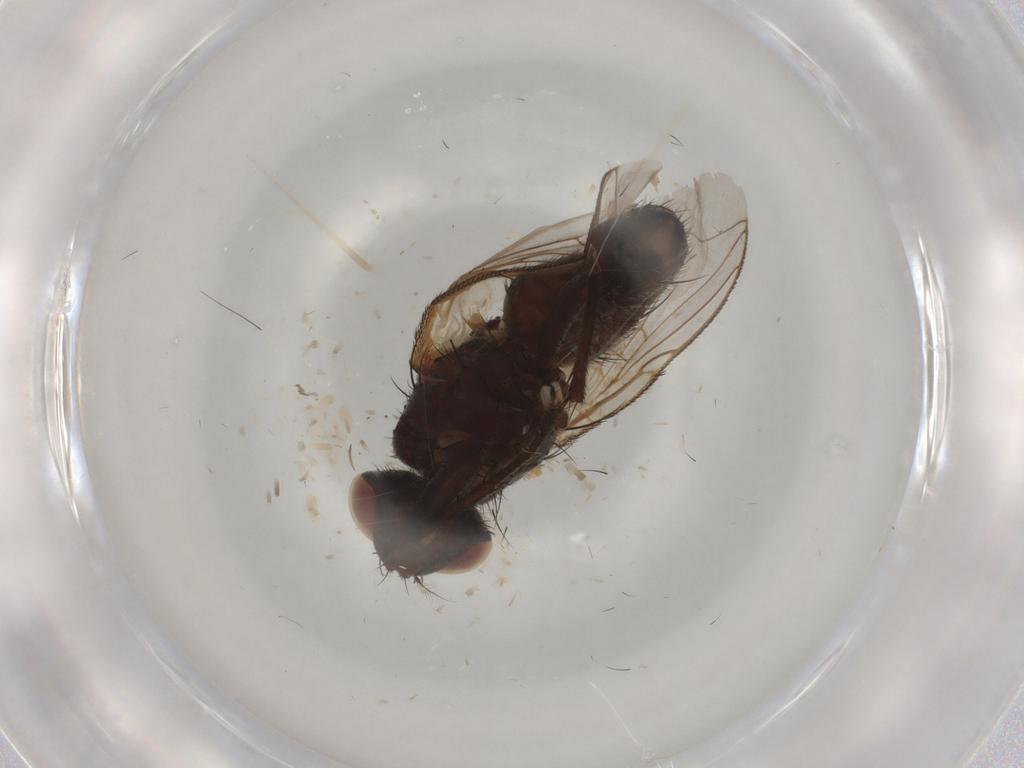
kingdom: Animalia
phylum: Arthropoda
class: Insecta
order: Diptera
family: Sarcophagidae
